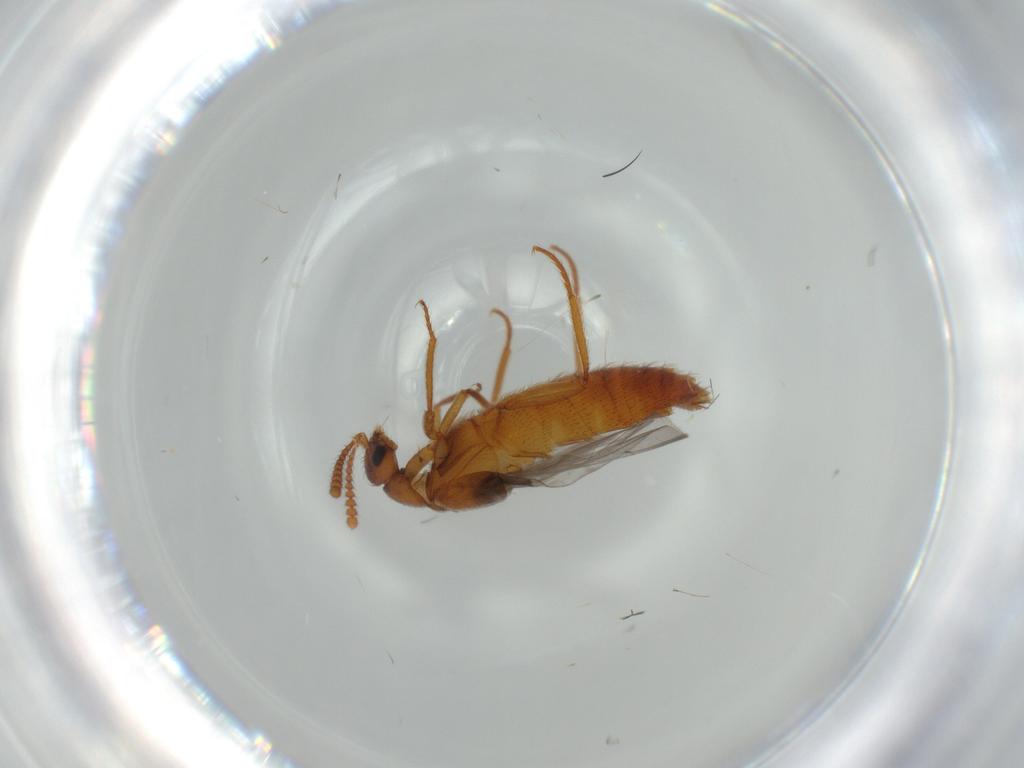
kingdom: Animalia
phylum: Arthropoda
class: Insecta
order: Coleoptera
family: Staphylinidae
